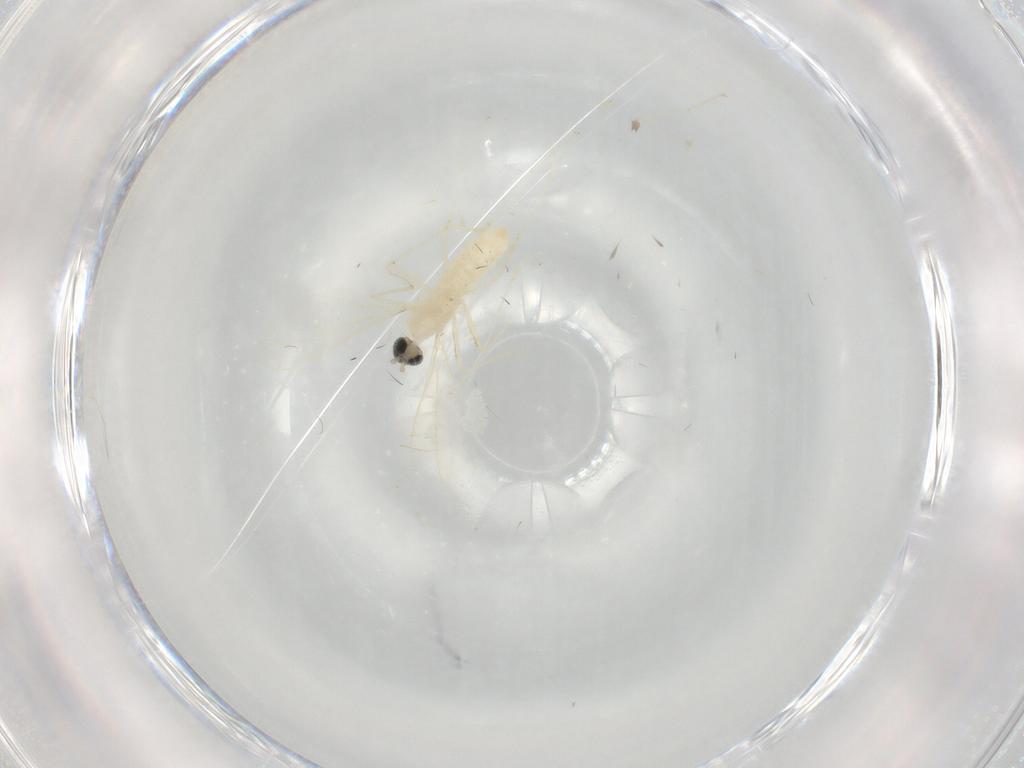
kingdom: Animalia
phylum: Arthropoda
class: Insecta
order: Diptera
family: Cecidomyiidae
